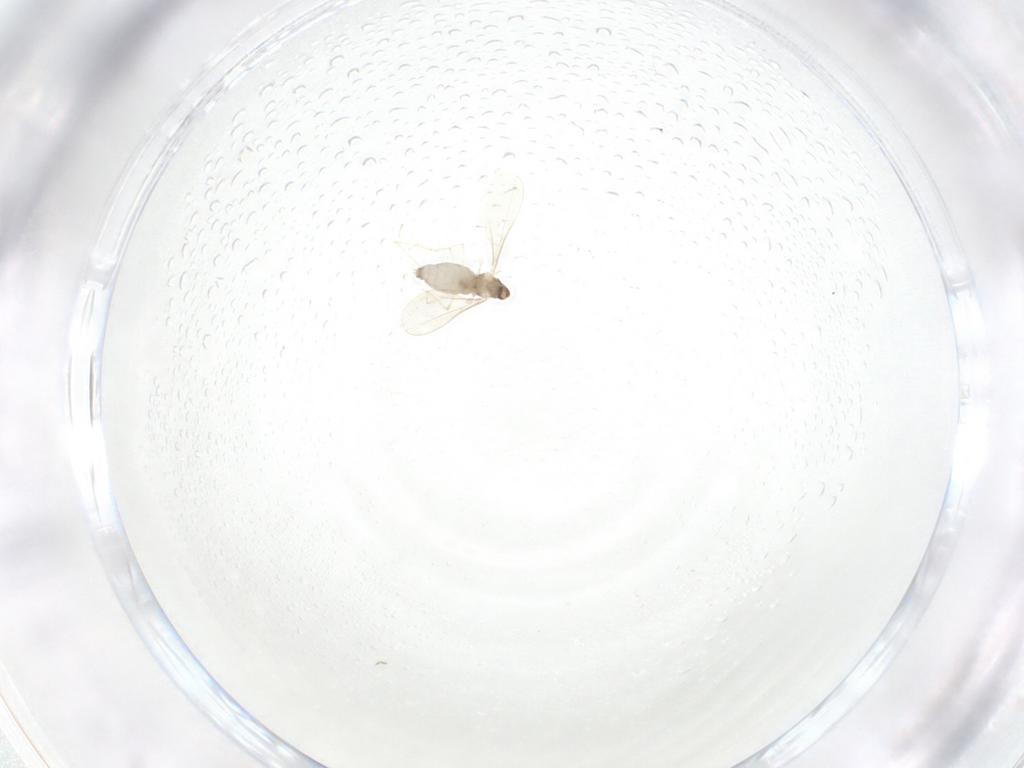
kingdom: Animalia
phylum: Arthropoda
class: Insecta
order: Diptera
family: Cecidomyiidae
